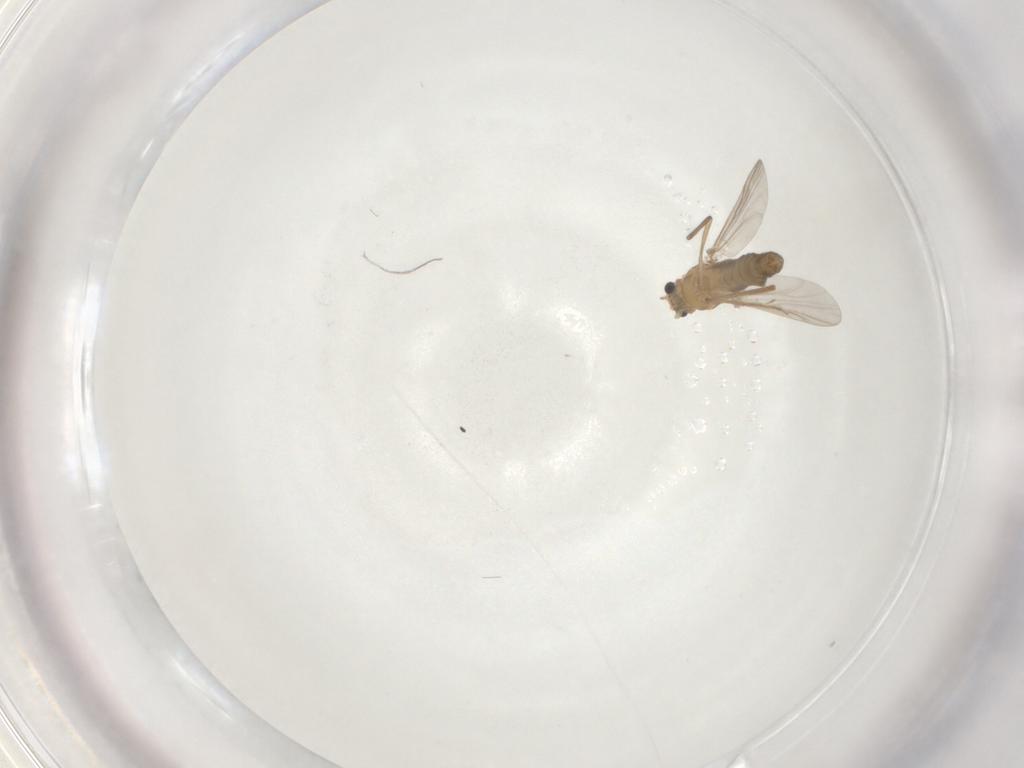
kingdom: Animalia
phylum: Arthropoda
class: Insecta
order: Diptera
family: Chironomidae
